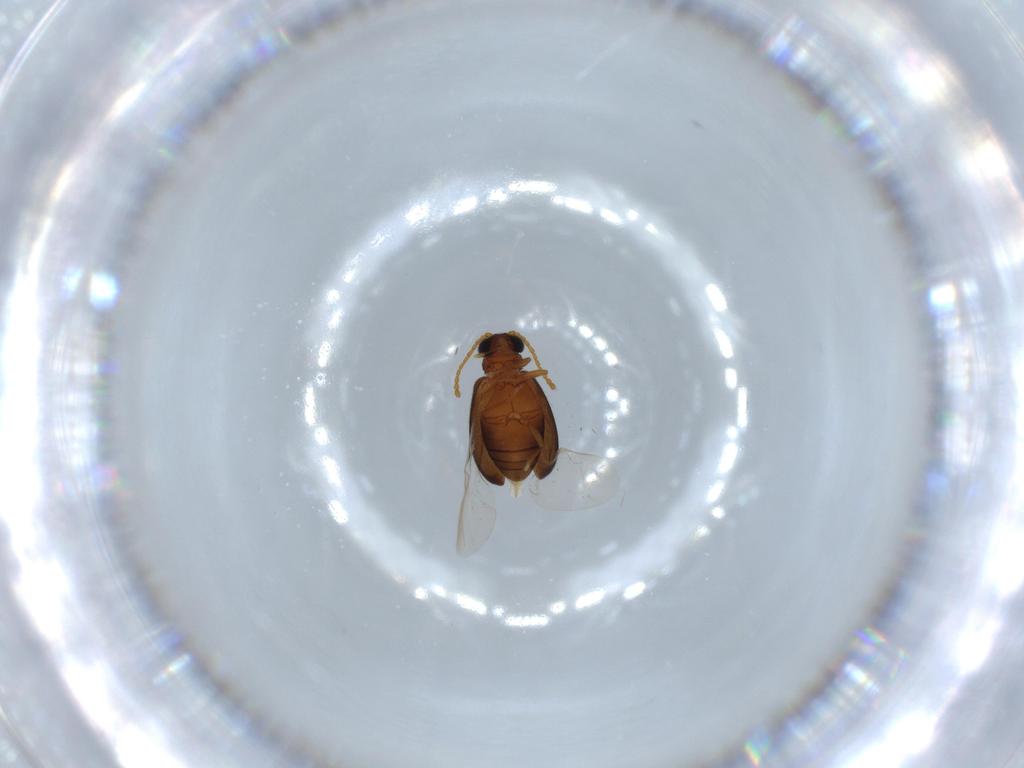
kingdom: Animalia
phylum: Arthropoda
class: Insecta
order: Coleoptera
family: Aderidae
